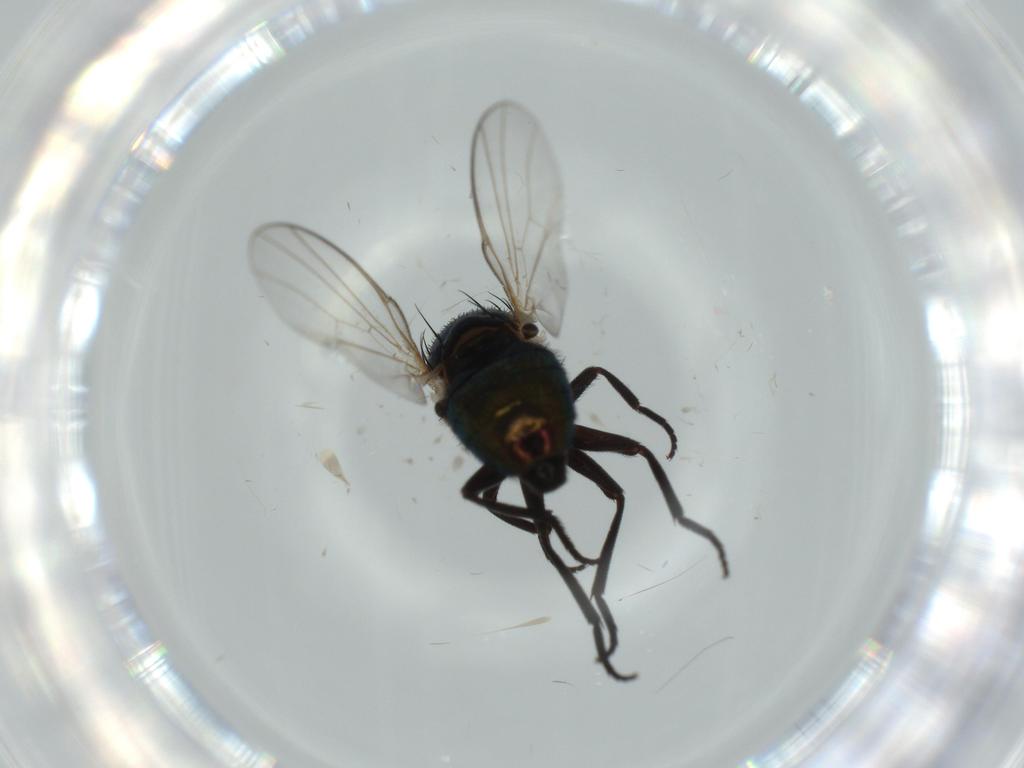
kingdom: Animalia
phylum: Arthropoda
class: Insecta
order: Diptera
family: Agromyzidae
